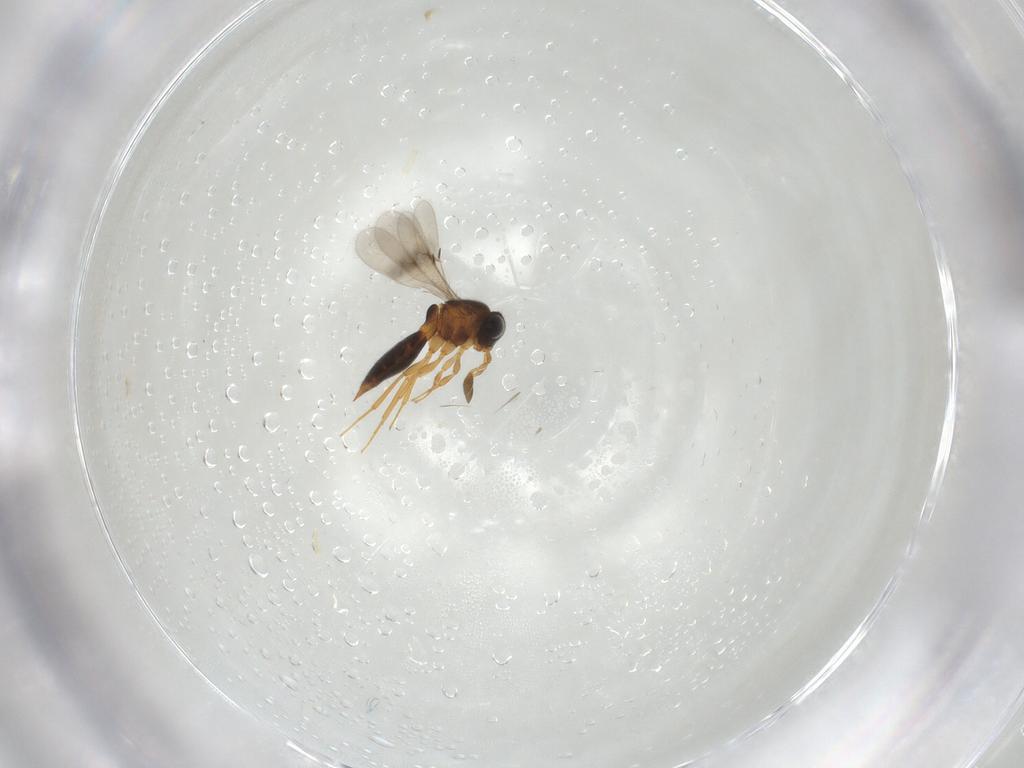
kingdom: Animalia
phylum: Arthropoda
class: Insecta
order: Hymenoptera
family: Scelionidae
